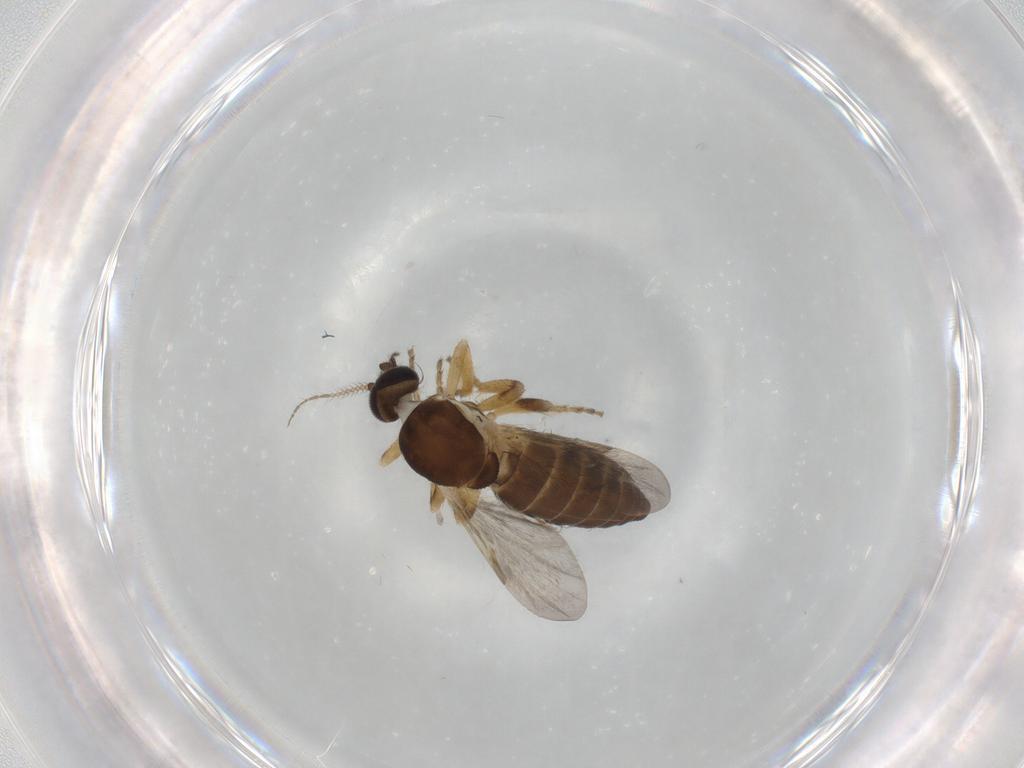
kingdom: Animalia
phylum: Arthropoda
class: Insecta
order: Diptera
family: Ceratopogonidae
